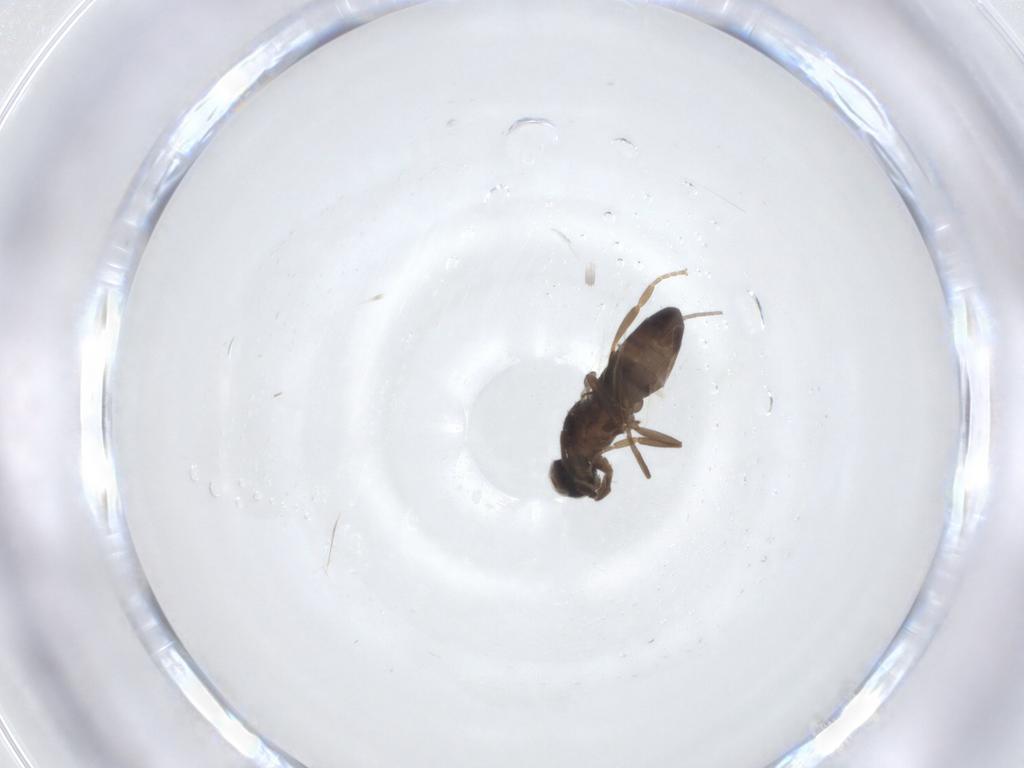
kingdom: Animalia
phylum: Arthropoda
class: Insecta
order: Diptera
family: Cecidomyiidae
